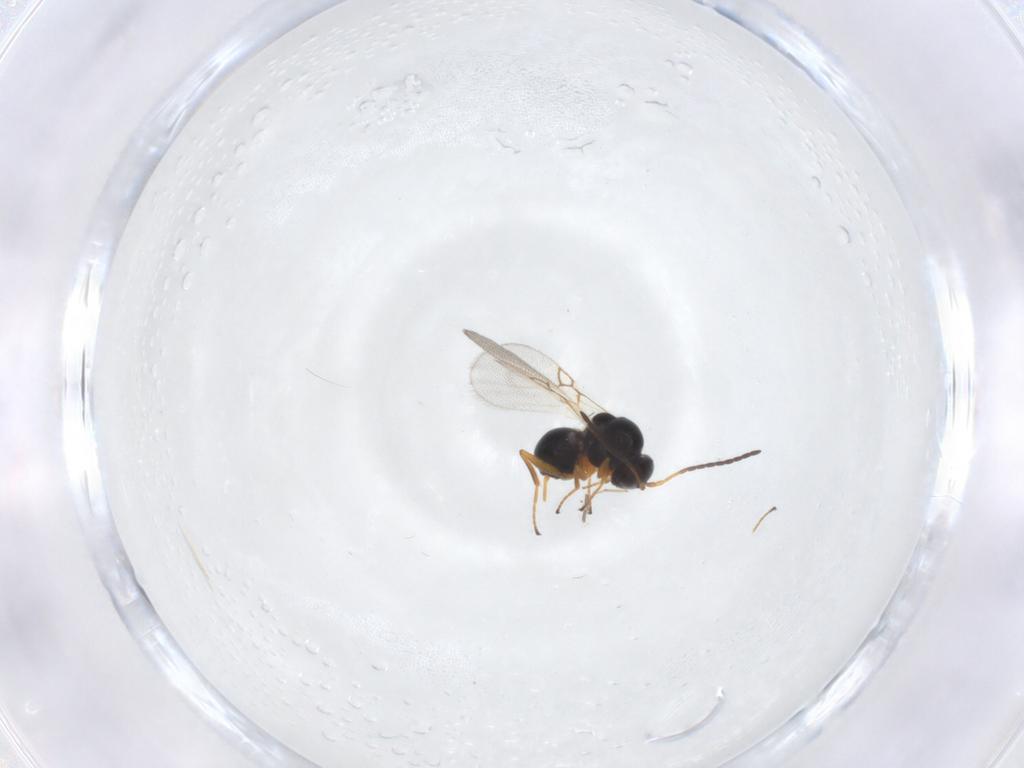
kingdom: Animalia
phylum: Arthropoda
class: Insecta
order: Hymenoptera
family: Figitidae
